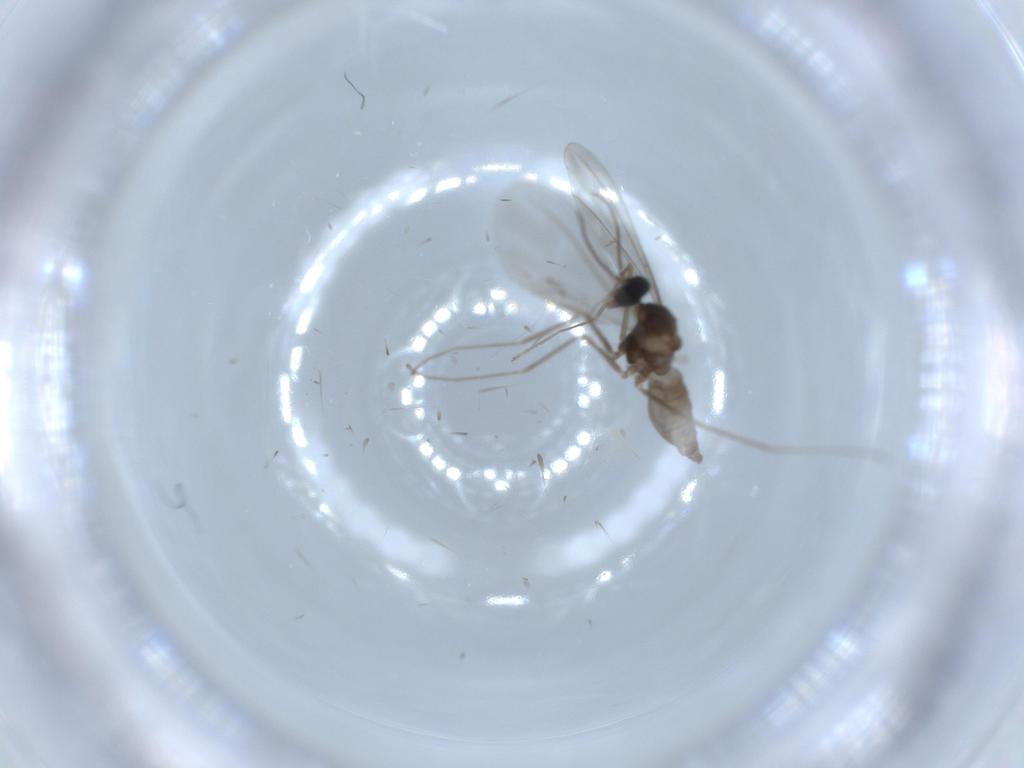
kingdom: Animalia
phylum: Arthropoda
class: Insecta
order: Diptera
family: Cecidomyiidae
